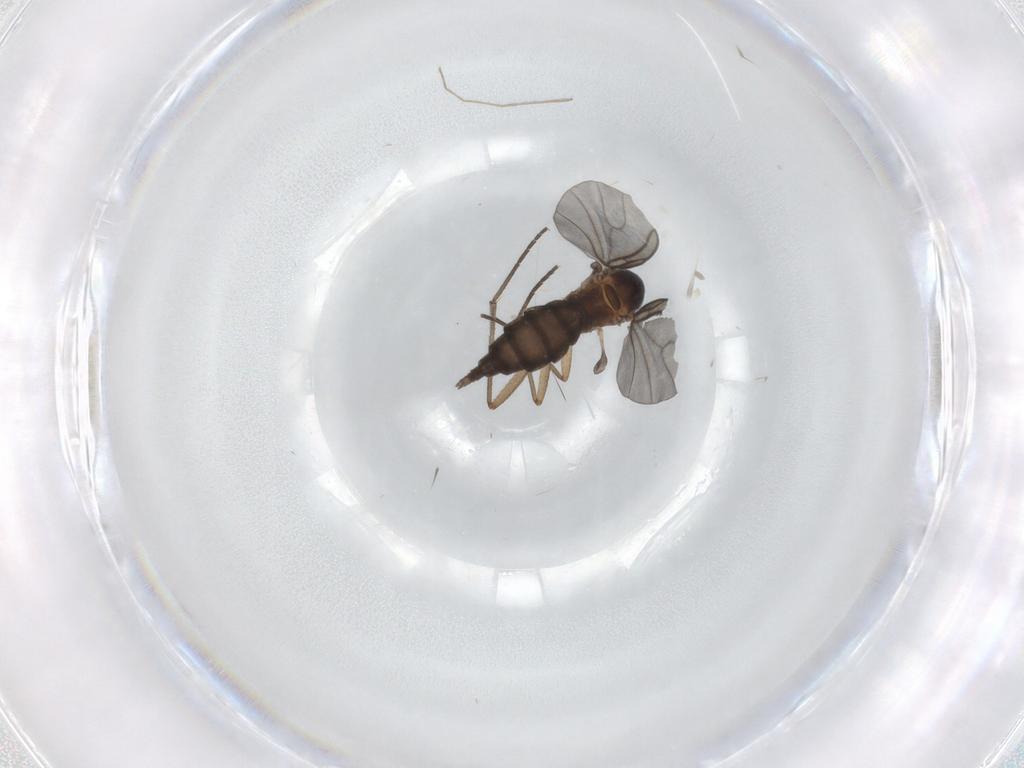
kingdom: Animalia
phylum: Arthropoda
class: Insecta
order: Diptera
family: Sciaridae
